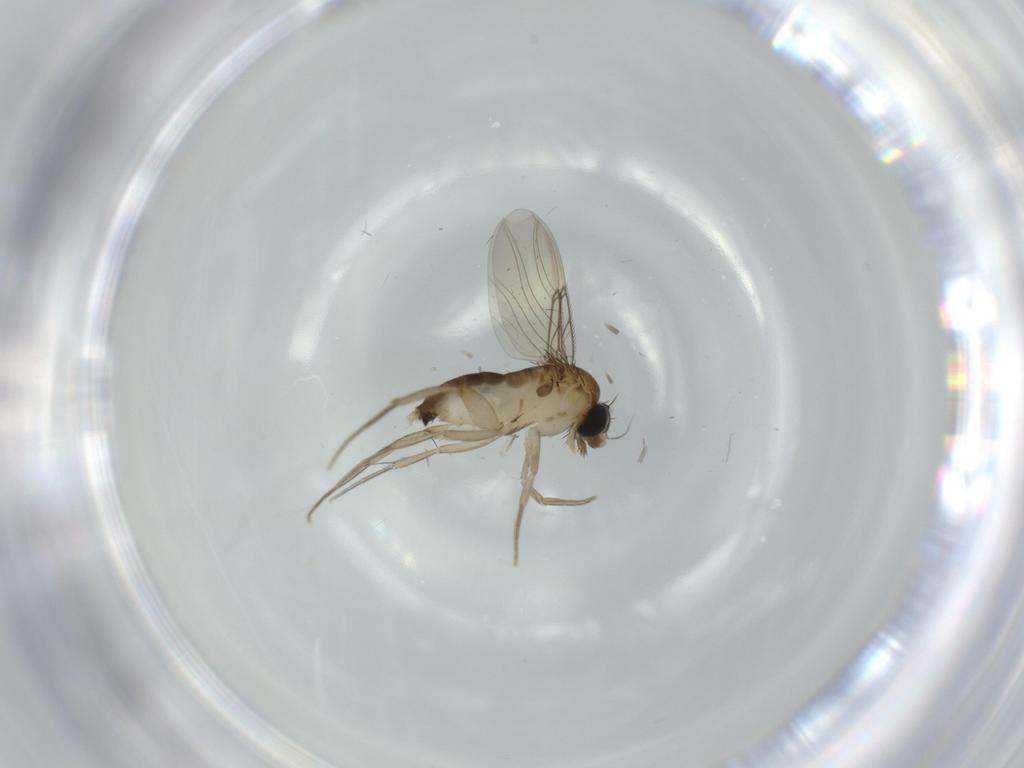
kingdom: Animalia
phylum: Arthropoda
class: Insecta
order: Diptera
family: Phoridae
